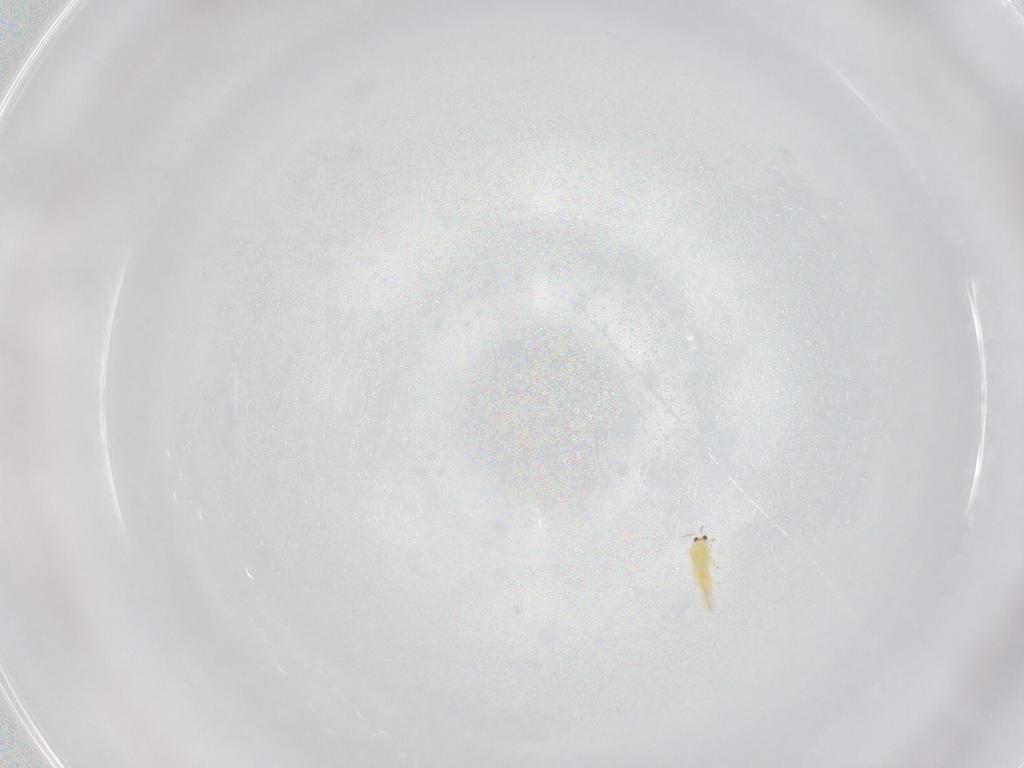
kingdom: Animalia
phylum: Arthropoda
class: Insecta
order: Thysanoptera
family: Thripidae
